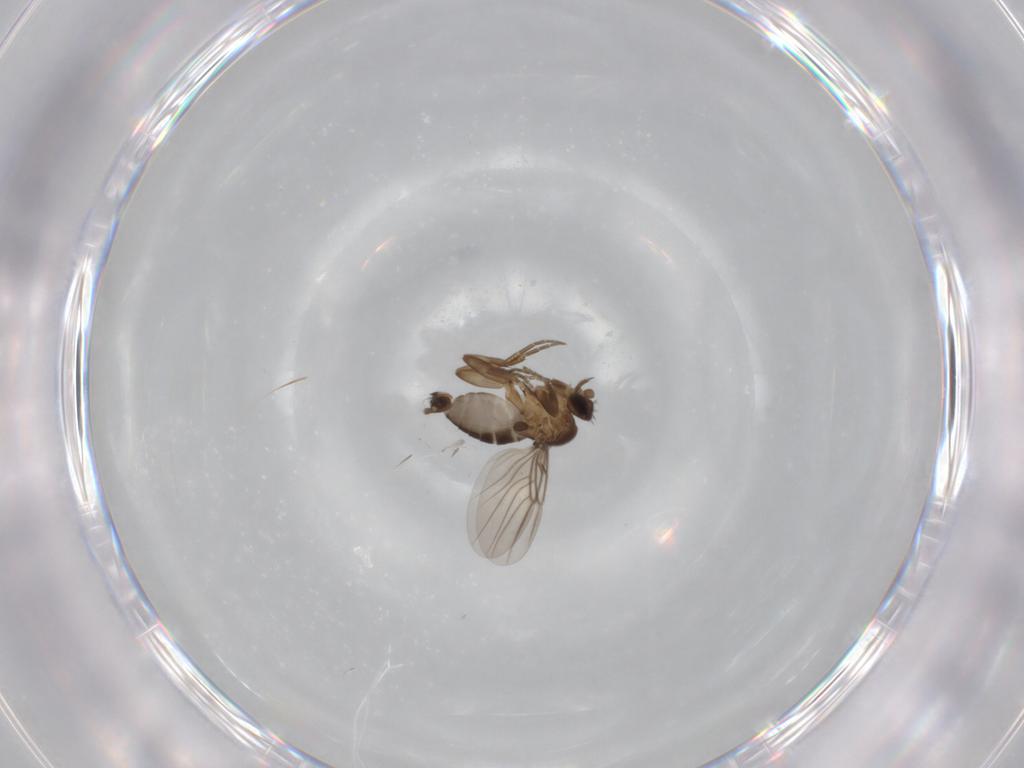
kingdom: Animalia
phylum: Arthropoda
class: Insecta
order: Diptera
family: Phoridae
